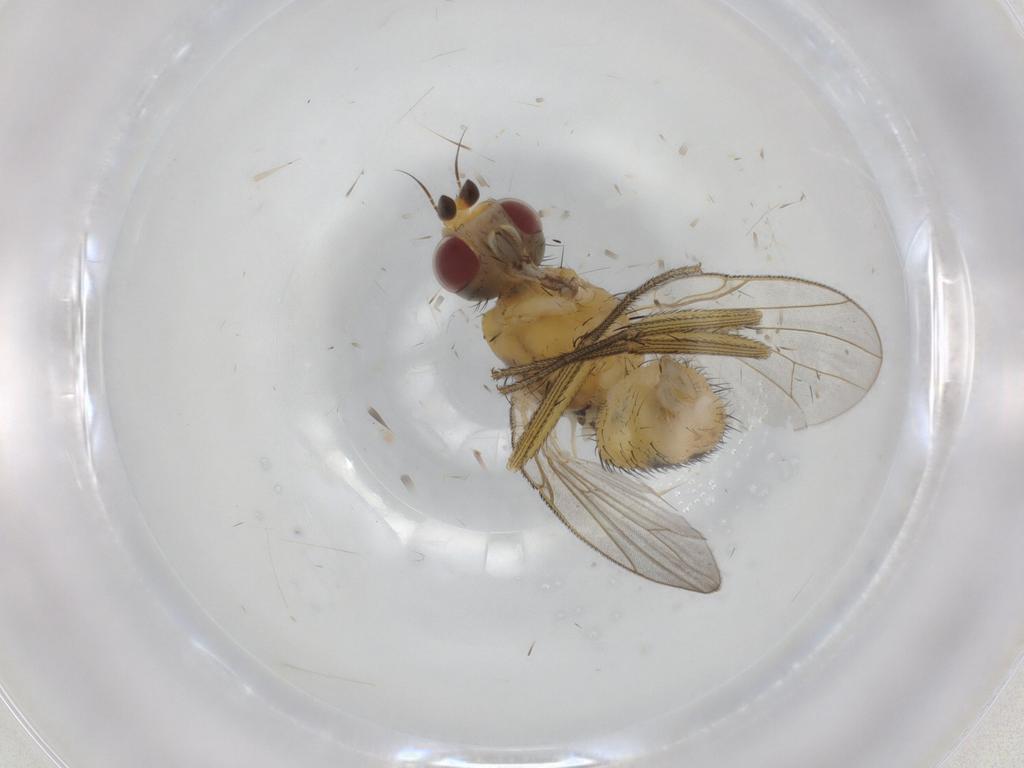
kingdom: Animalia
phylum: Arthropoda
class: Insecta
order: Diptera
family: Muscidae
